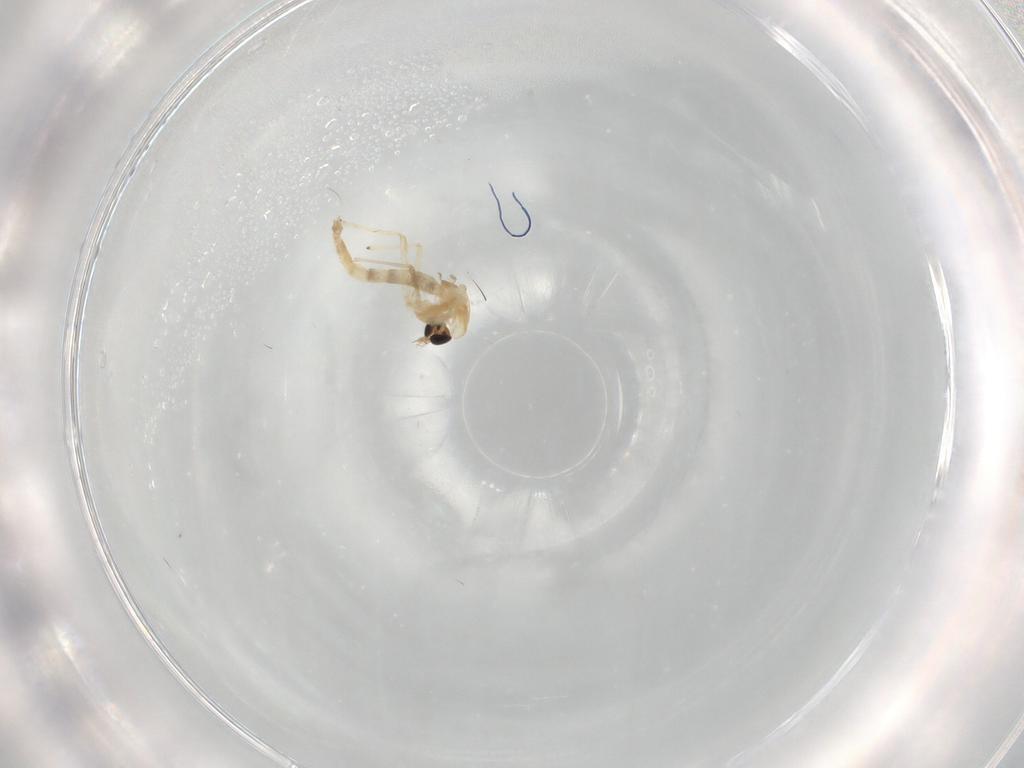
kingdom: Animalia
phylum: Arthropoda
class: Insecta
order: Diptera
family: Chironomidae
